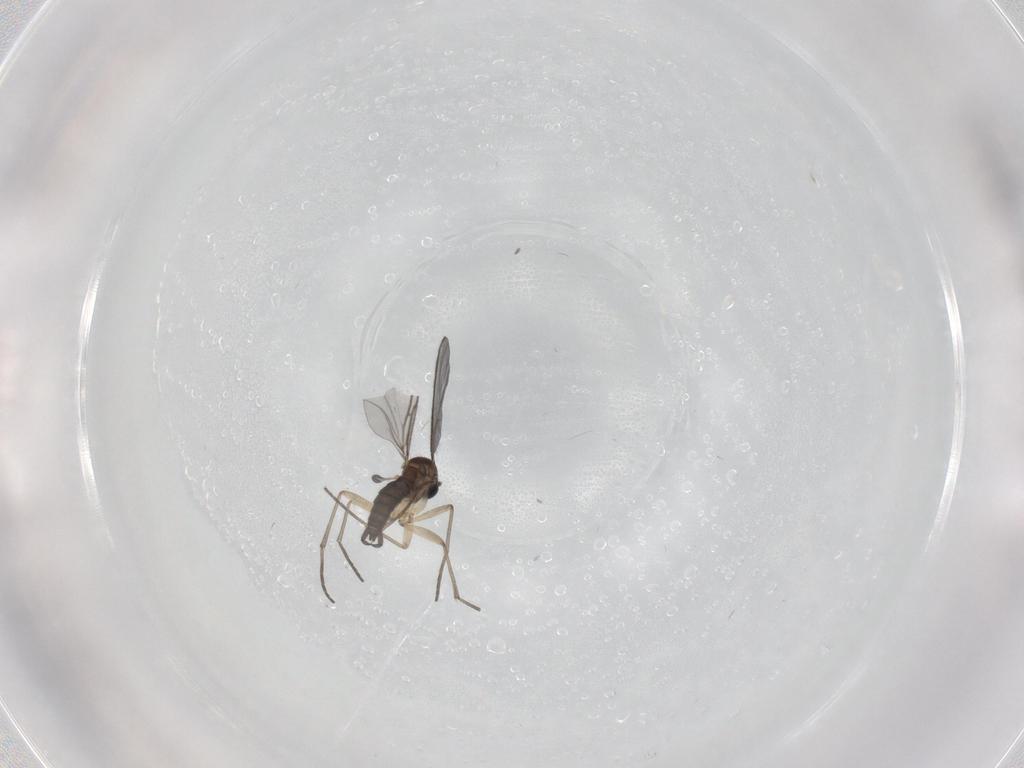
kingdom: Animalia
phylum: Arthropoda
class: Insecta
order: Diptera
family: Sciaridae
